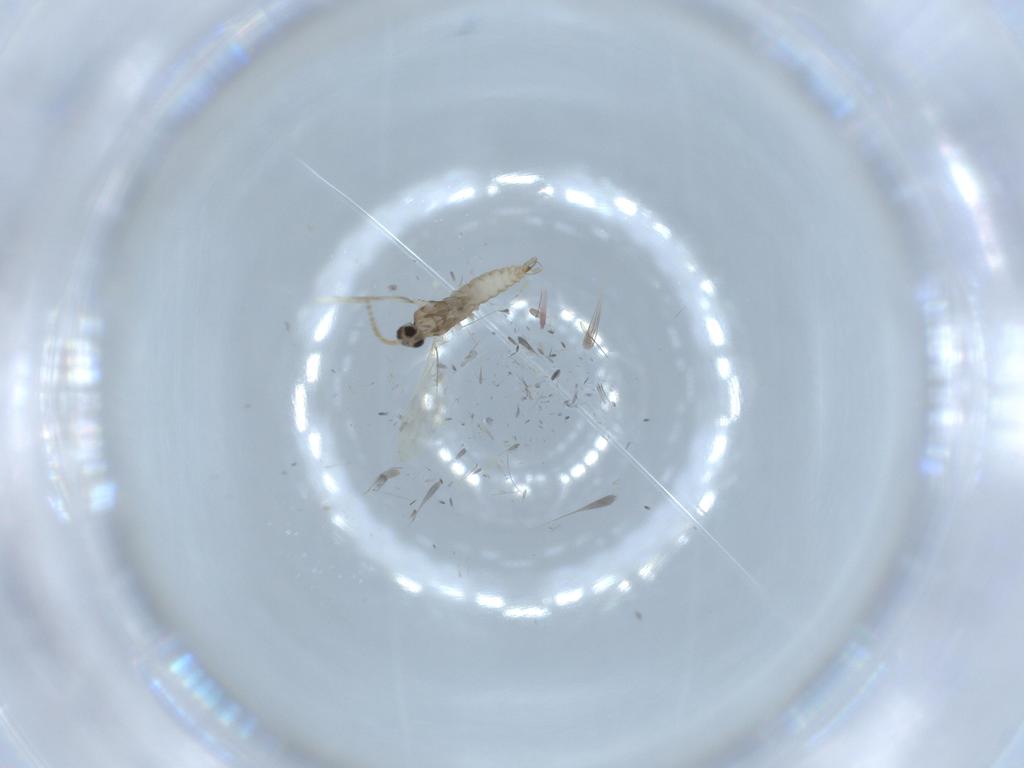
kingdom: Animalia
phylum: Arthropoda
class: Insecta
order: Diptera
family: Cecidomyiidae
